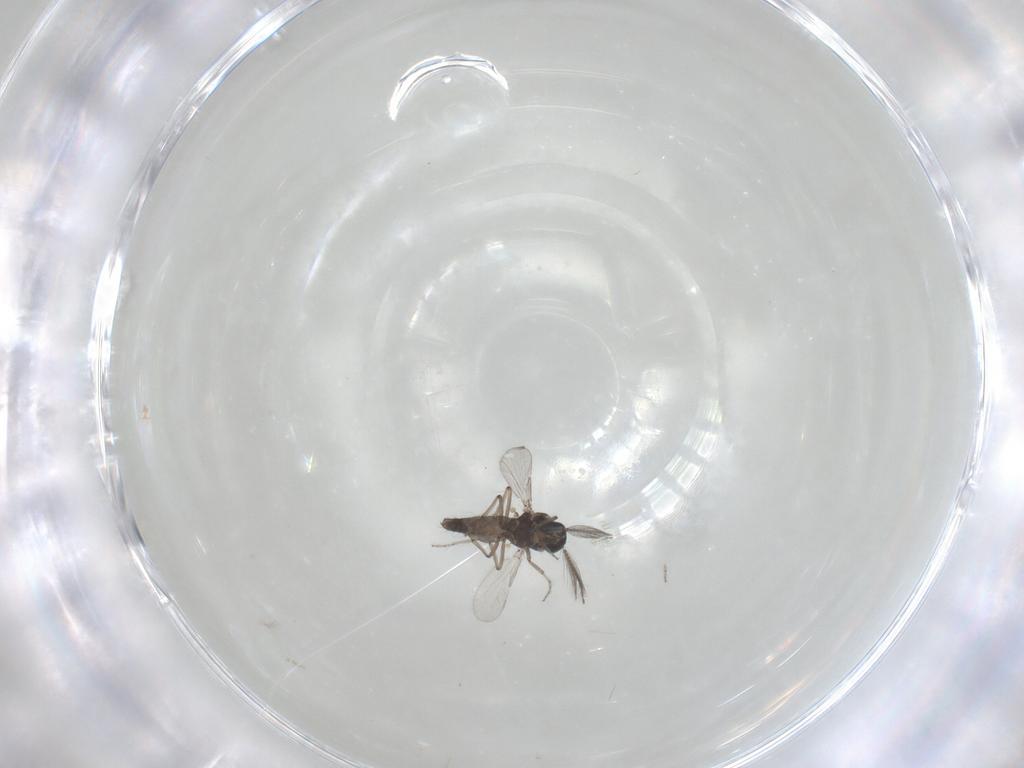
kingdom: Animalia
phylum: Arthropoda
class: Insecta
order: Diptera
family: Ceratopogonidae
